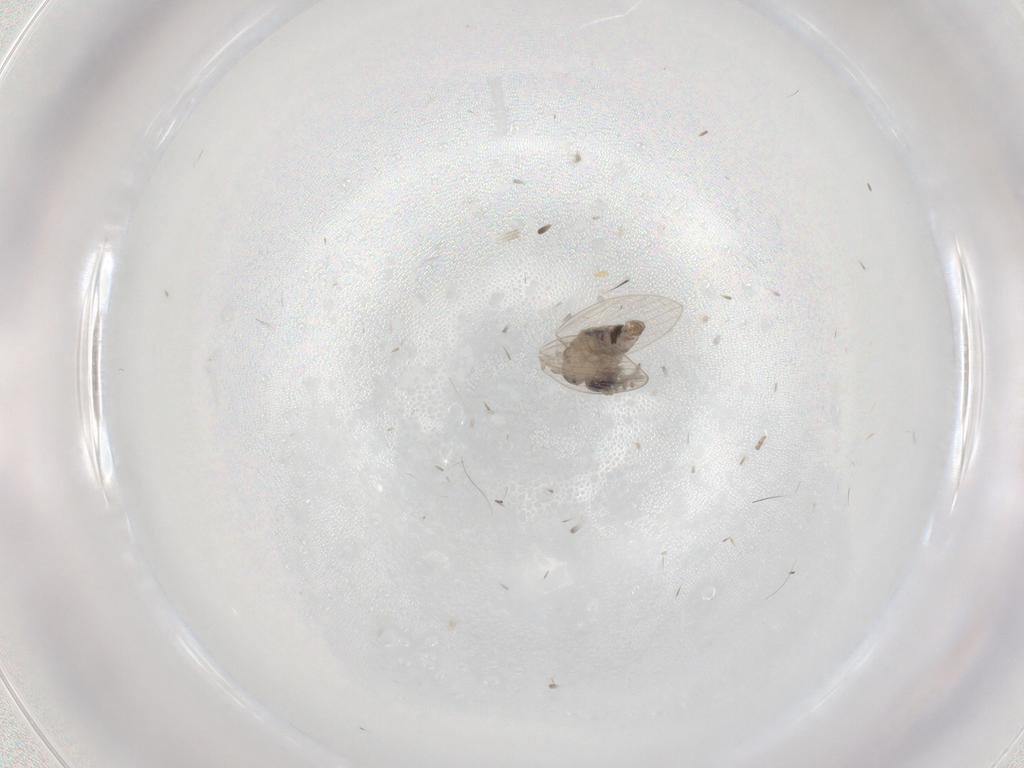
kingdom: Animalia
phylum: Arthropoda
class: Insecta
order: Diptera
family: Psychodidae
